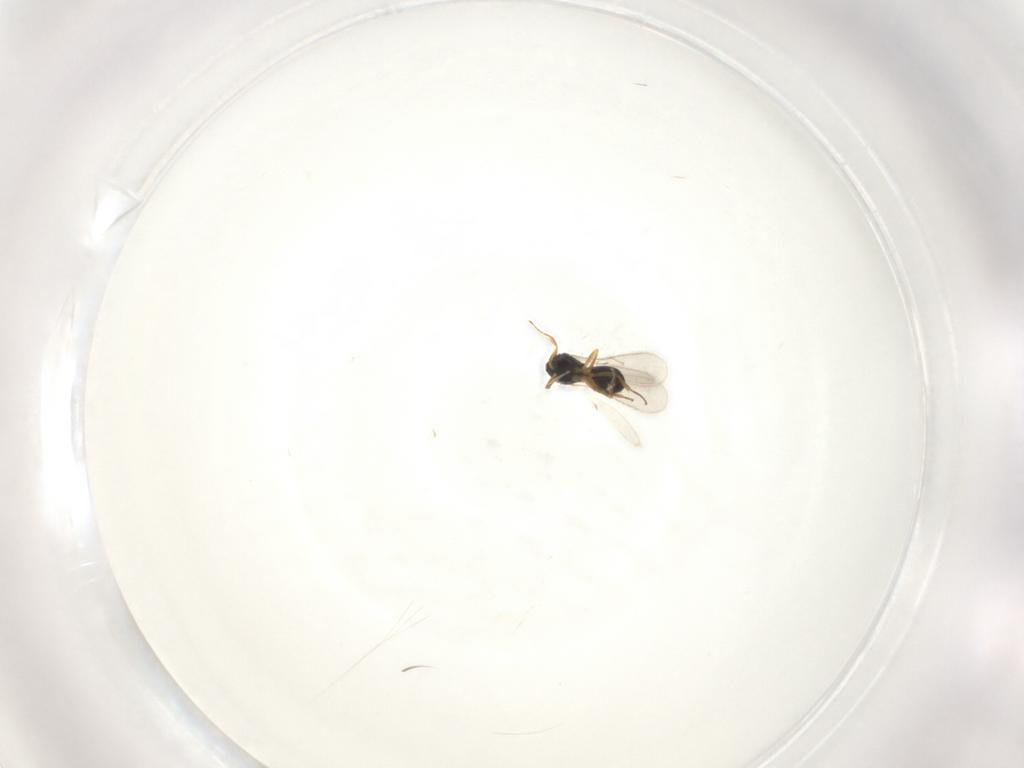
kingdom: Animalia
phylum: Arthropoda
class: Insecta
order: Hymenoptera
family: Scelionidae
